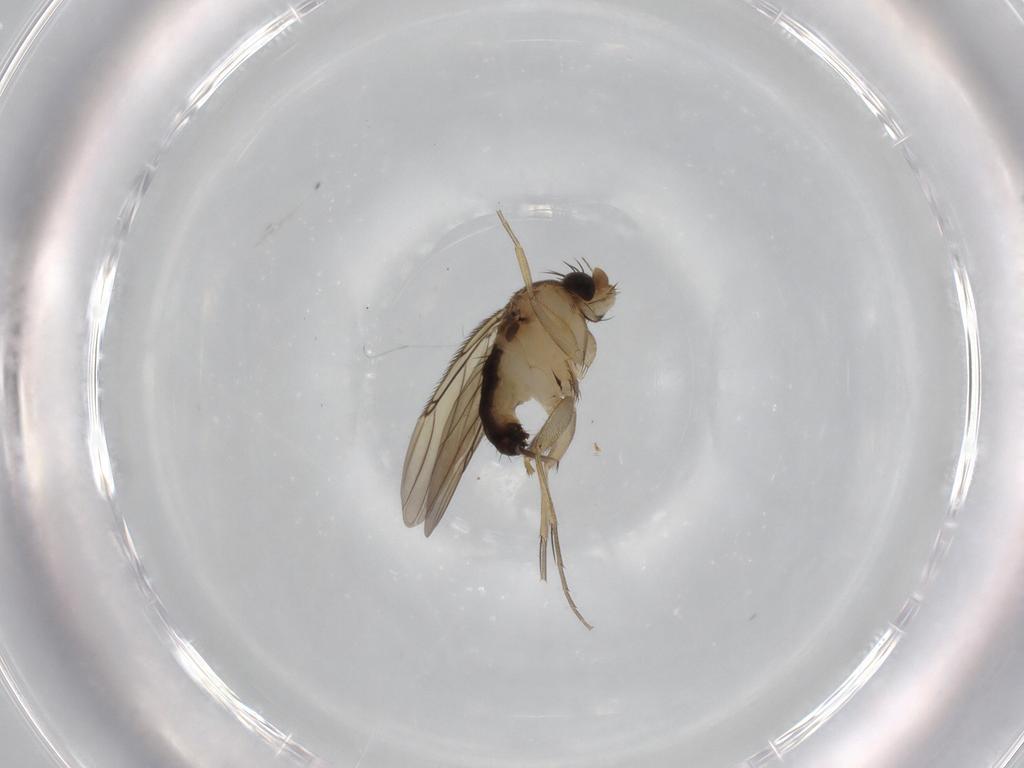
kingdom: Animalia
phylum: Arthropoda
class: Insecta
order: Diptera
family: Phoridae
